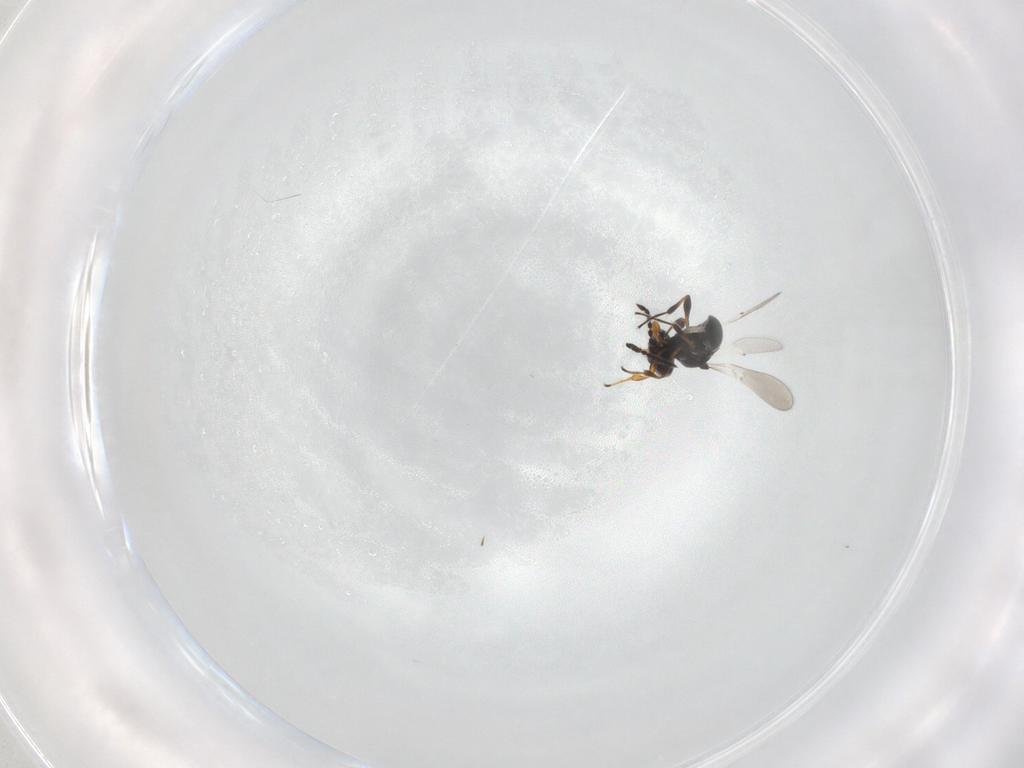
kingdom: Animalia
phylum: Arthropoda
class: Insecta
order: Hymenoptera
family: Platygastridae
